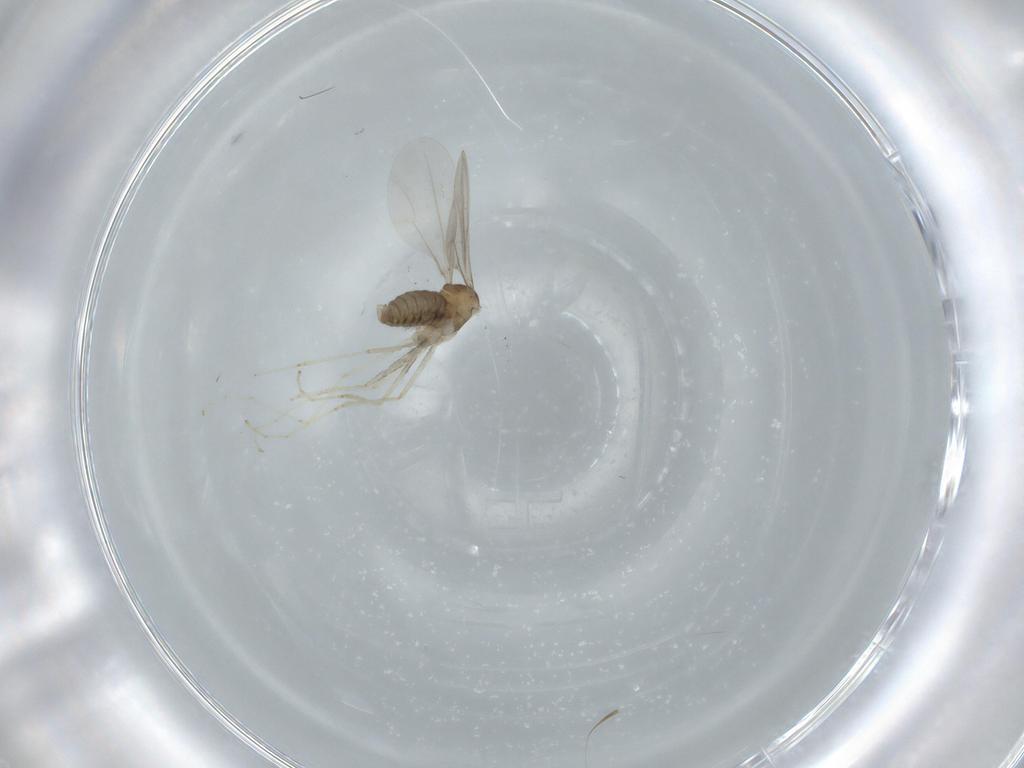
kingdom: Animalia
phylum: Arthropoda
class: Insecta
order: Diptera
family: Cecidomyiidae
